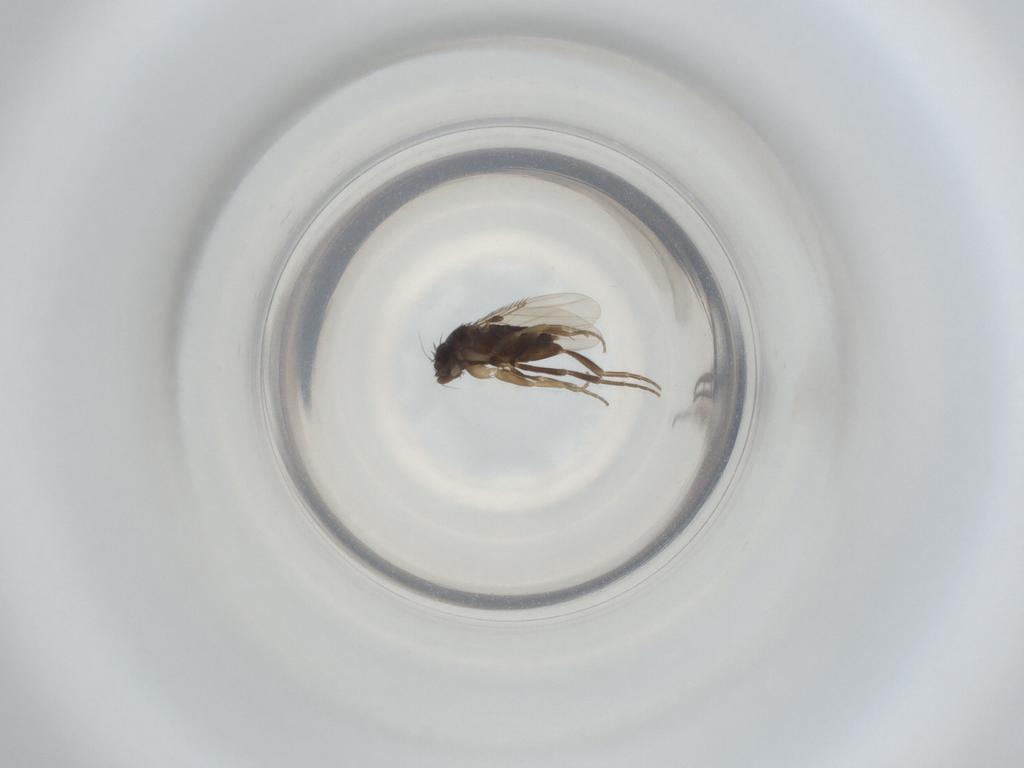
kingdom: Animalia
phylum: Arthropoda
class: Insecta
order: Diptera
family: Phoridae
